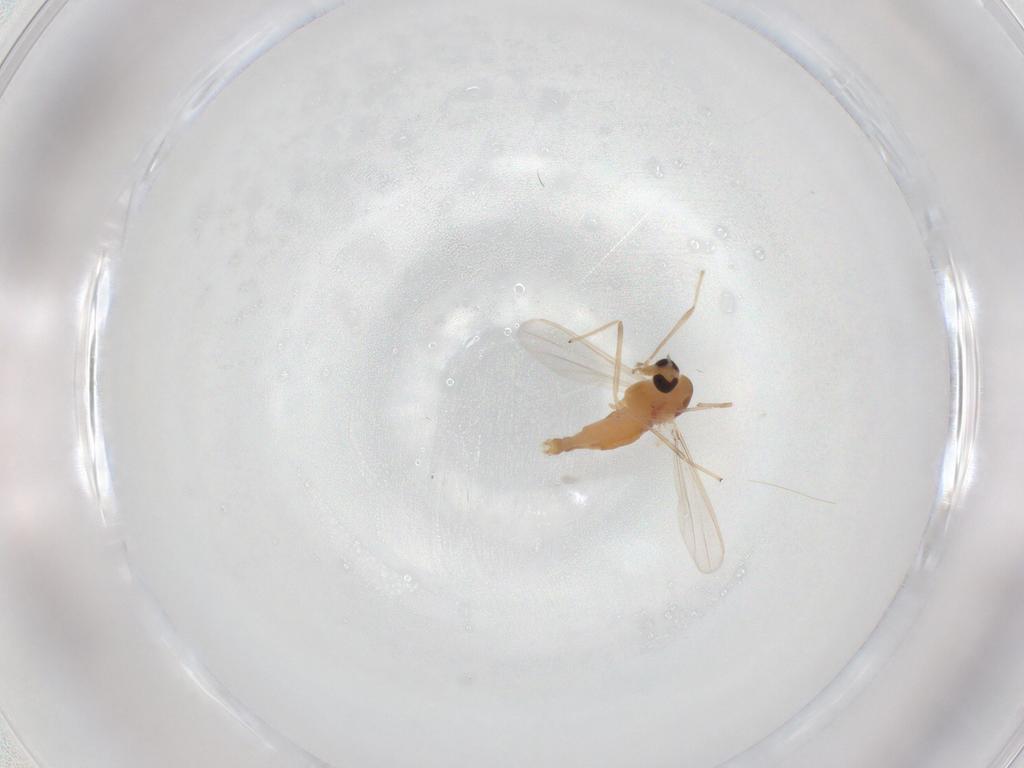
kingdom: Animalia
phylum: Arthropoda
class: Insecta
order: Diptera
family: Chironomidae
